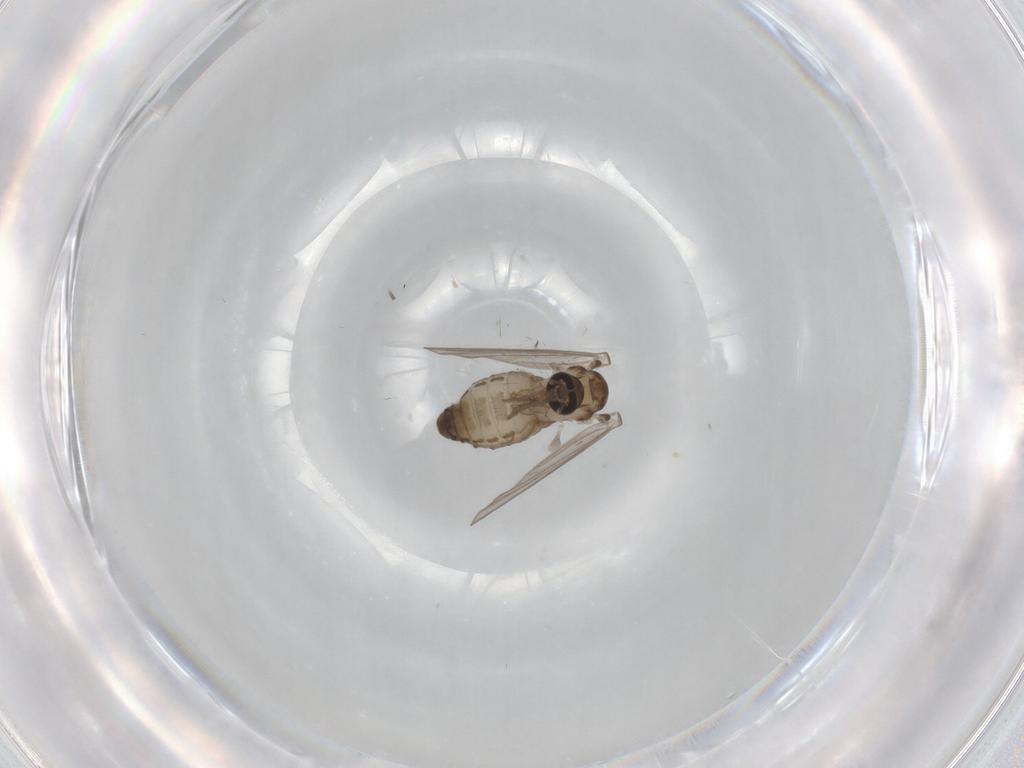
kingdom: Animalia
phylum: Arthropoda
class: Insecta
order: Diptera
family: Psychodidae
